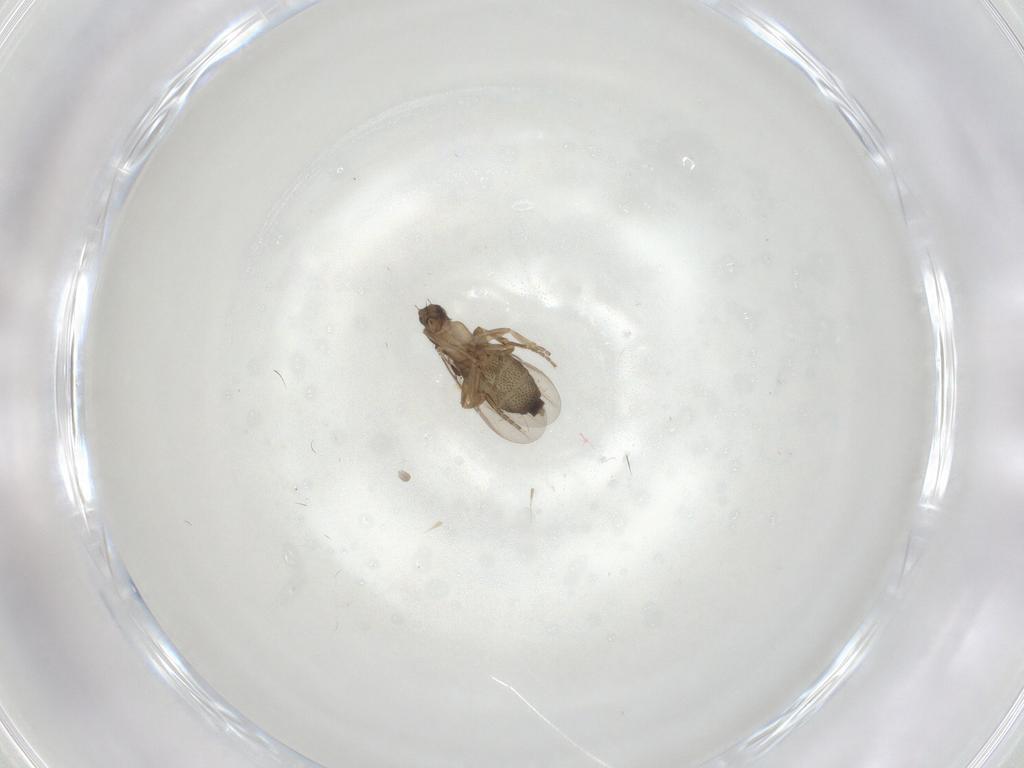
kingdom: Animalia
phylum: Arthropoda
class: Insecta
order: Diptera
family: Phoridae
